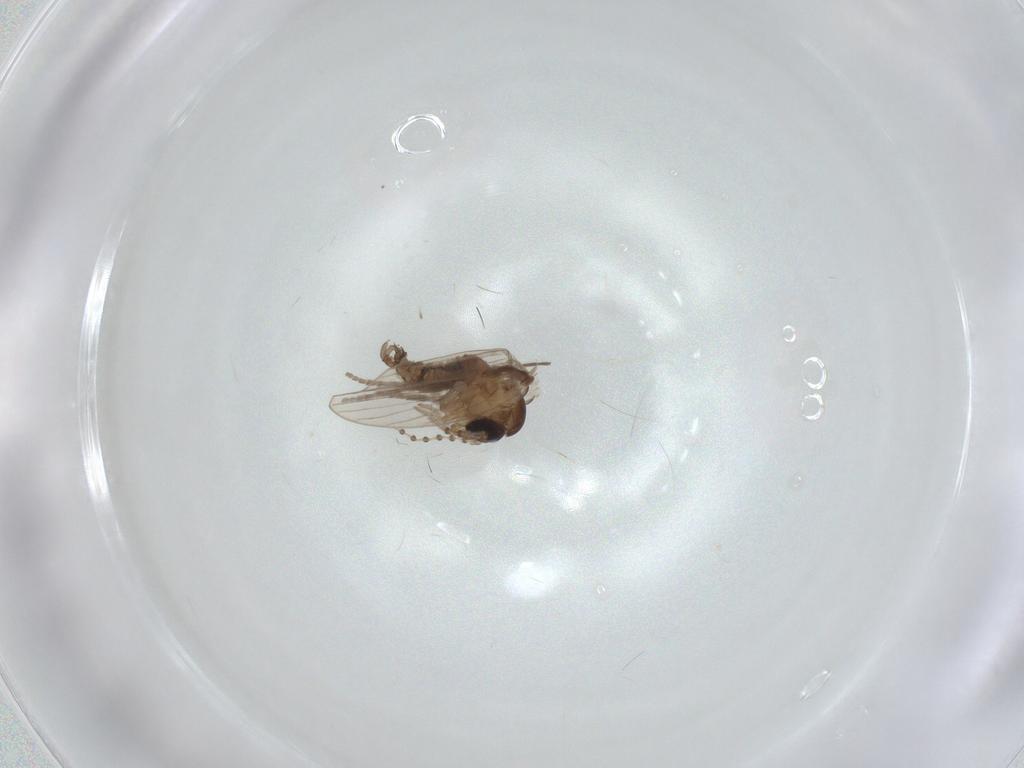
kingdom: Animalia
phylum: Arthropoda
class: Insecta
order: Diptera
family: Psychodidae
